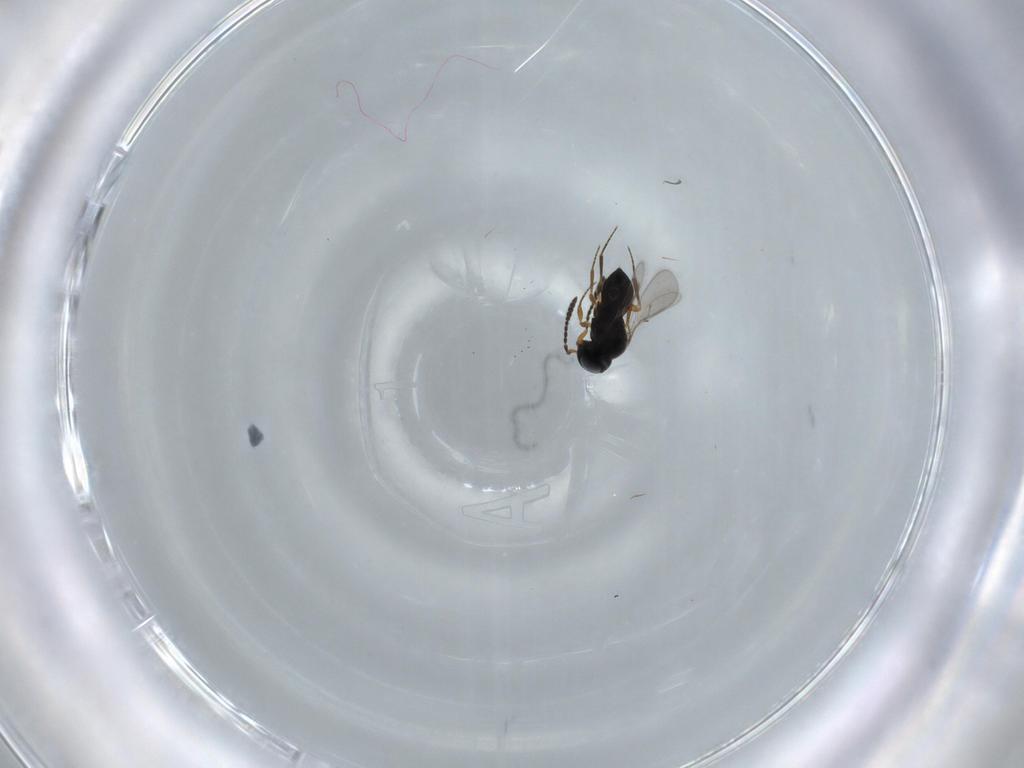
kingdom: Animalia
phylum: Arthropoda
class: Insecta
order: Hymenoptera
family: Scelionidae
